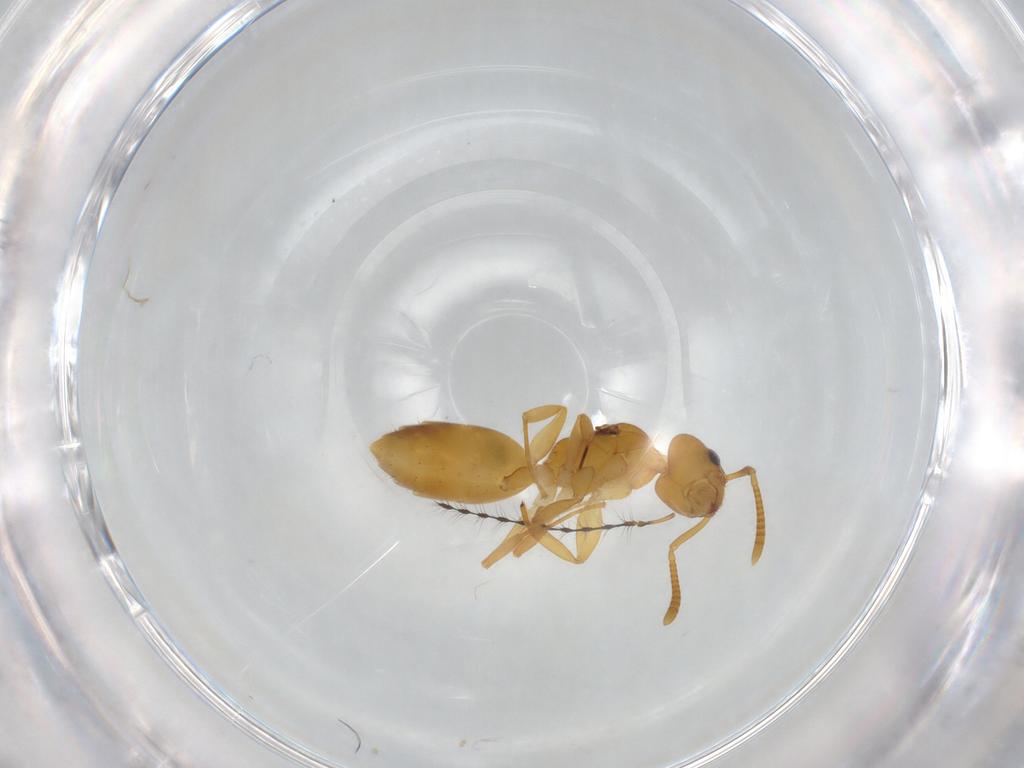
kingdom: Animalia
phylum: Arthropoda
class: Insecta
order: Hymenoptera
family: Formicidae
